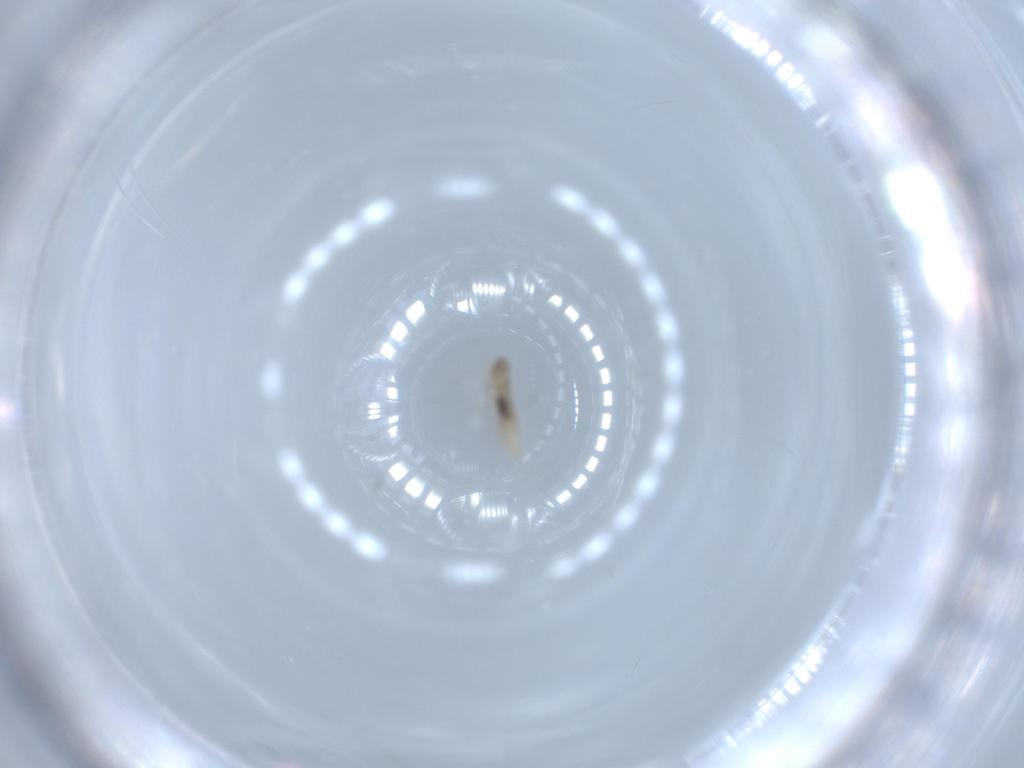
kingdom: Animalia
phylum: Arthropoda
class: Insecta
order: Diptera
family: Cecidomyiidae
